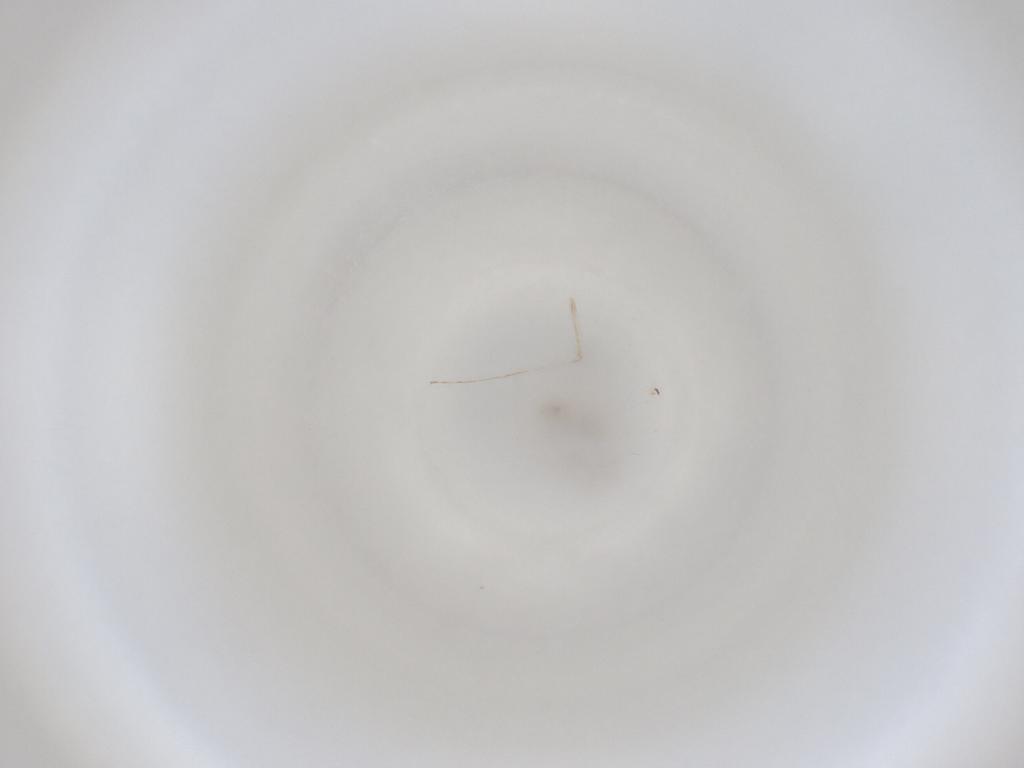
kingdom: Animalia
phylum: Arthropoda
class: Insecta
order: Diptera
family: Cecidomyiidae
